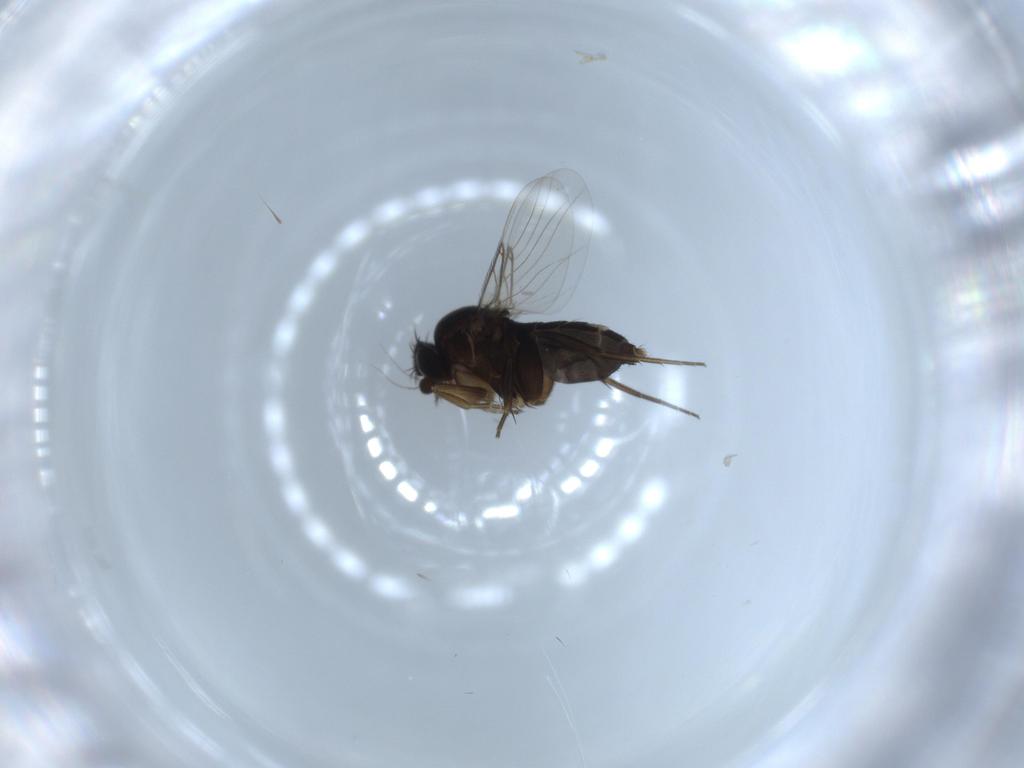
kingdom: Animalia
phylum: Arthropoda
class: Insecta
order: Diptera
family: Phoridae
